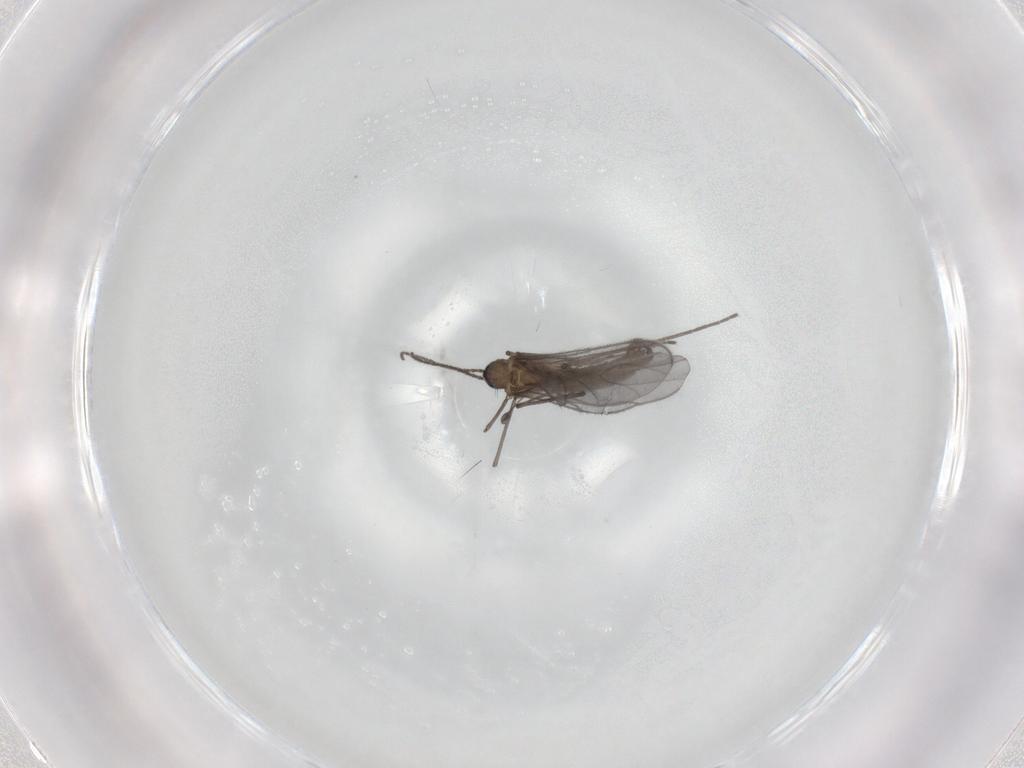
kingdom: Animalia
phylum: Arthropoda
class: Insecta
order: Diptera
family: Sciaridae
